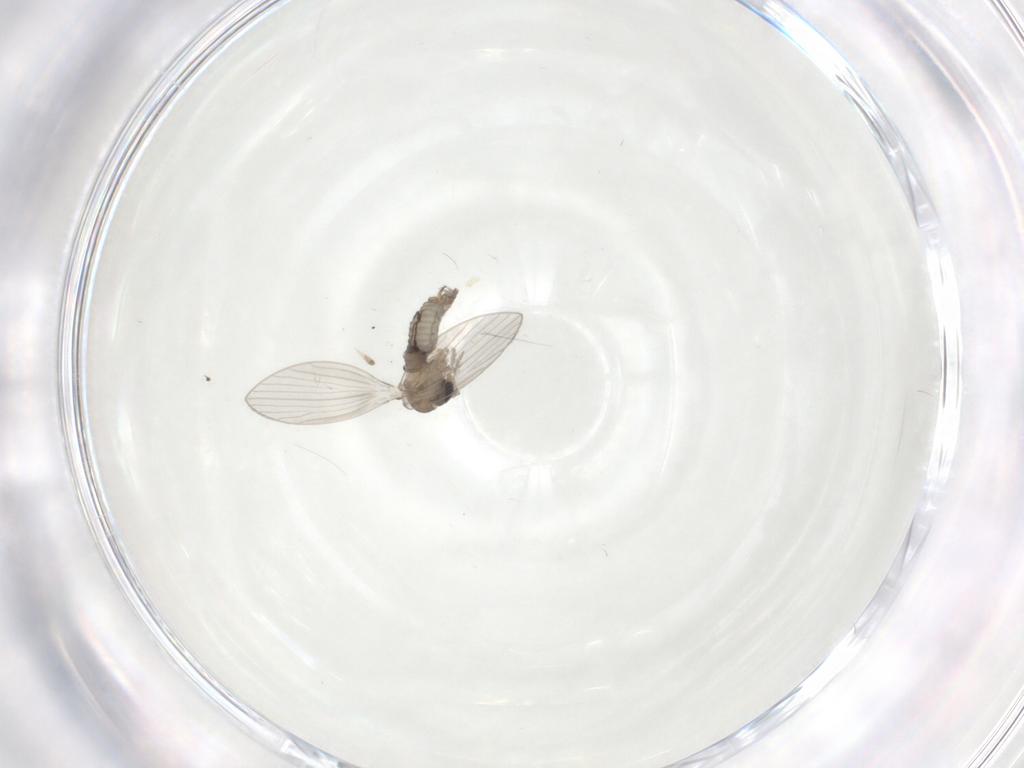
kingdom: Animalia
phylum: Arthropoda
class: Insecta
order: Diptera
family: Psychodidae
